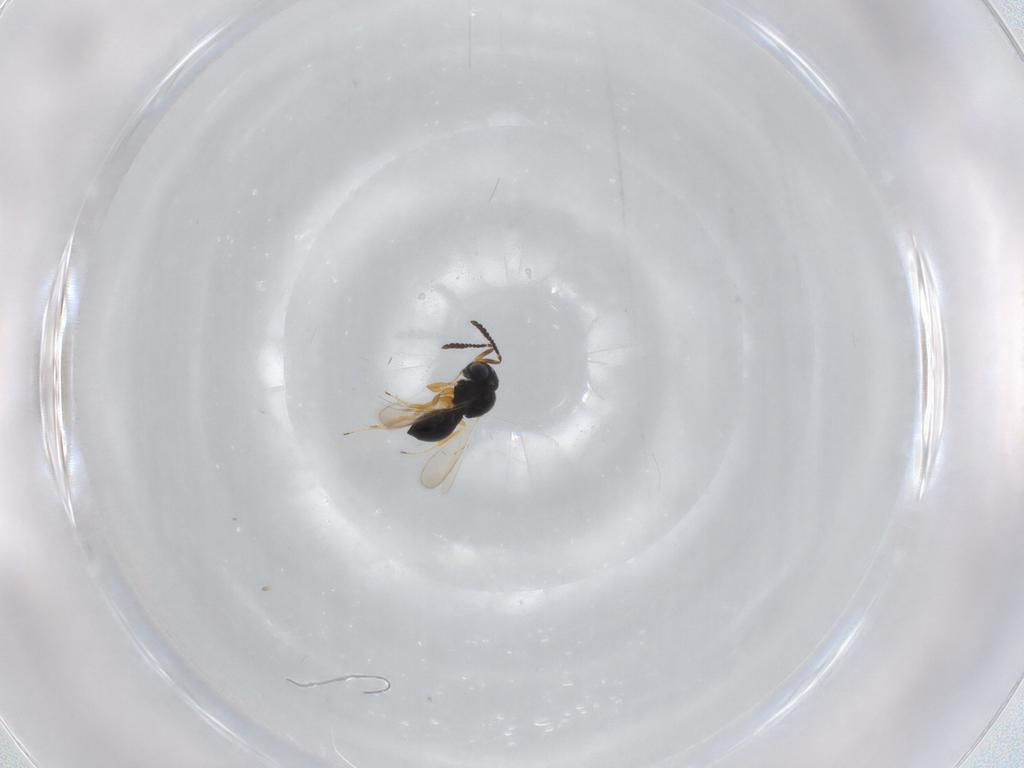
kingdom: Animalia
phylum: Arthropoda
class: Insecta
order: Hymenoptera
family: Scelionidae
